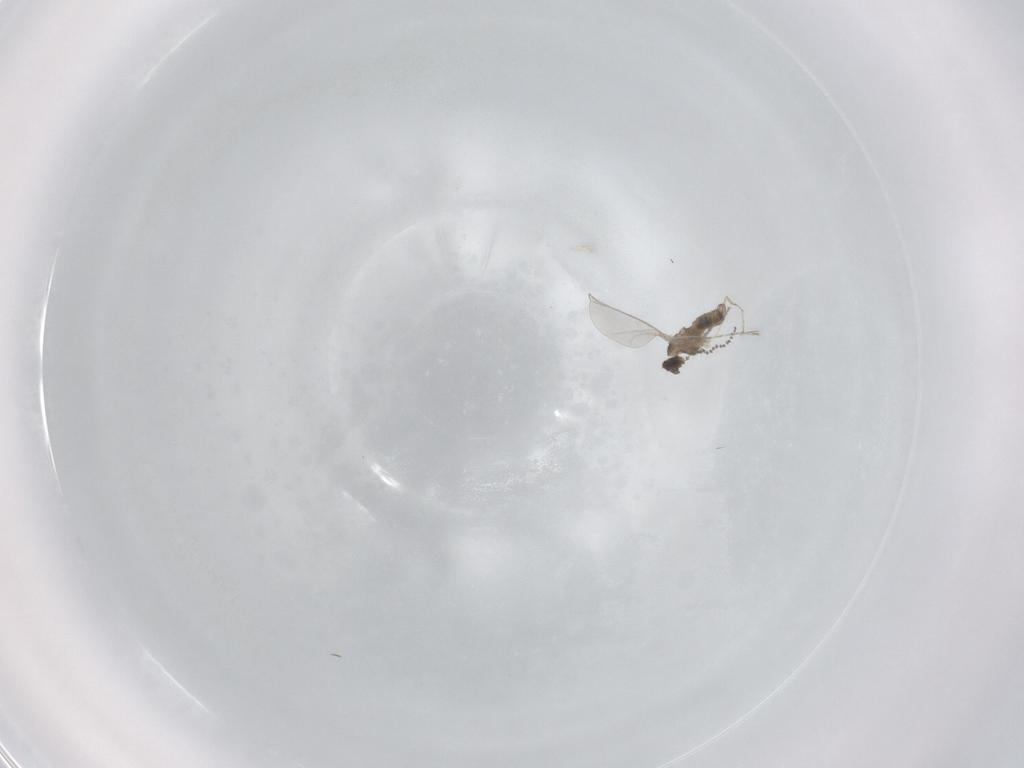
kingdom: Animalia
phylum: Arthropoda
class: Insecta
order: Diptera
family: Cecidomyiidae
